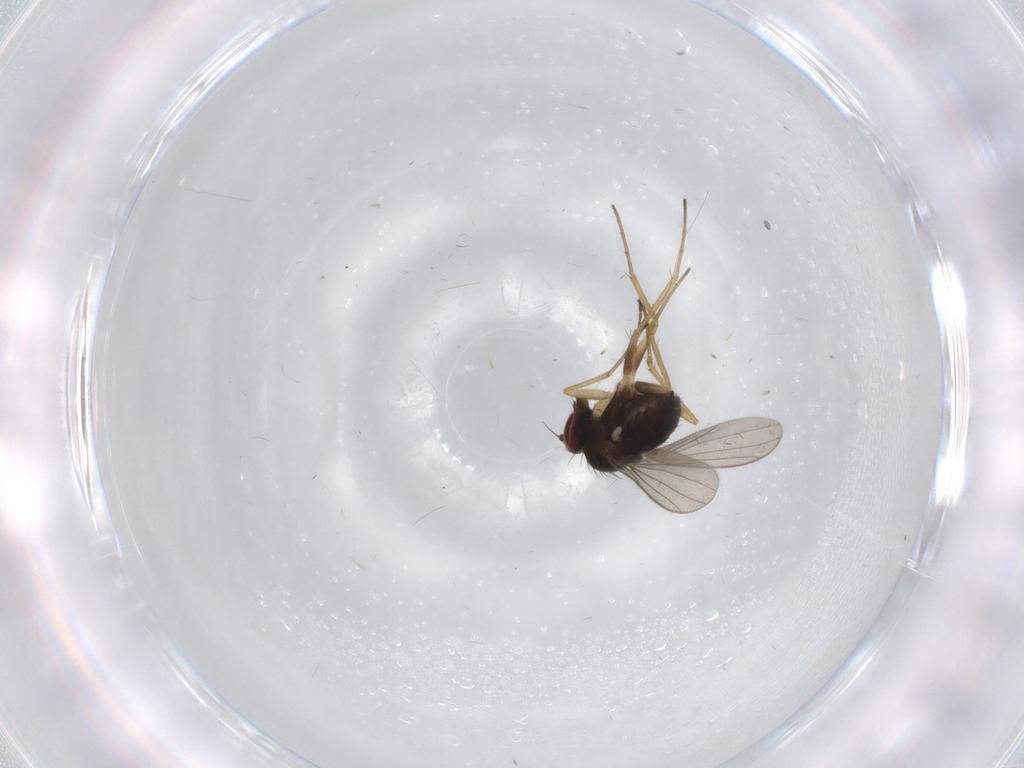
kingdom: Animalia
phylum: Arthropoda
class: Insecta
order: Diptera
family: Dolichopodidae
